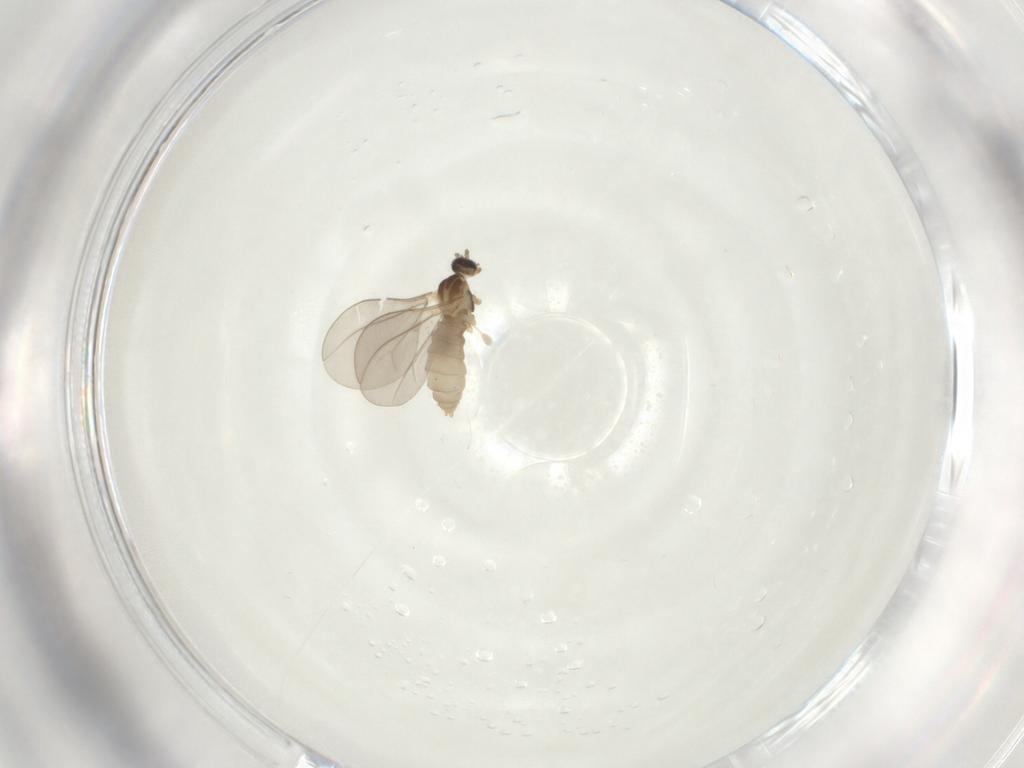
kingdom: Animalia
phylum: Arthropoda
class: Insecta
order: Diptera
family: Cecidomyiidae
